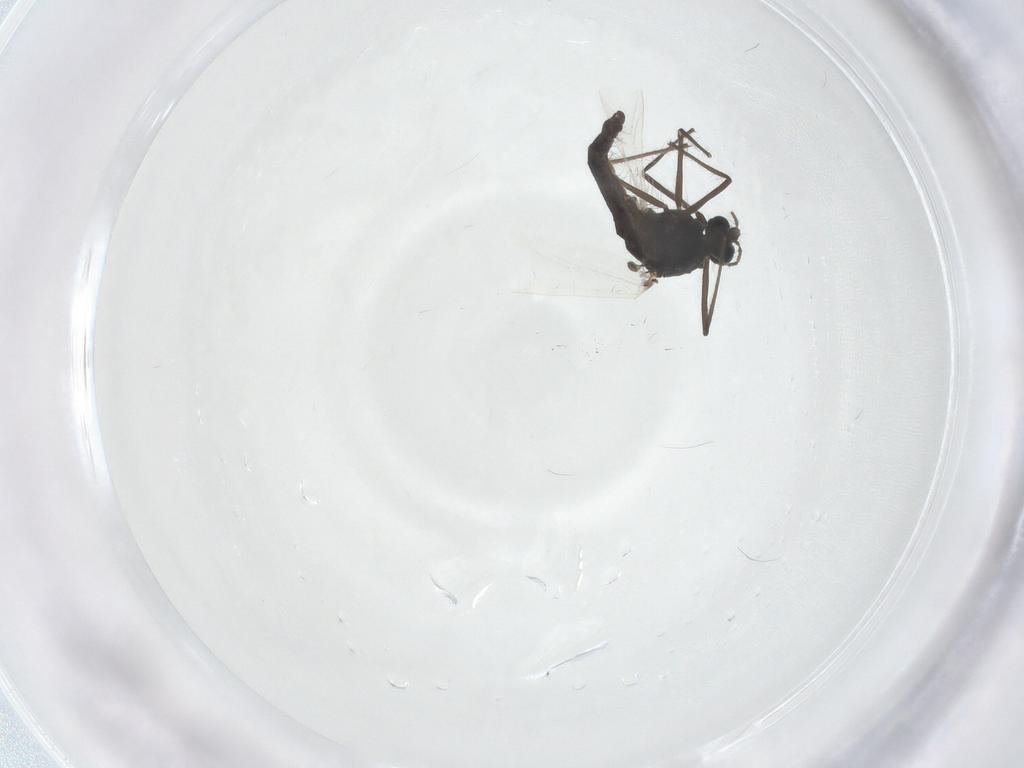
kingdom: Animalia
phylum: Arthropoda
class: Insecta
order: Diptera
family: Chironomidae
